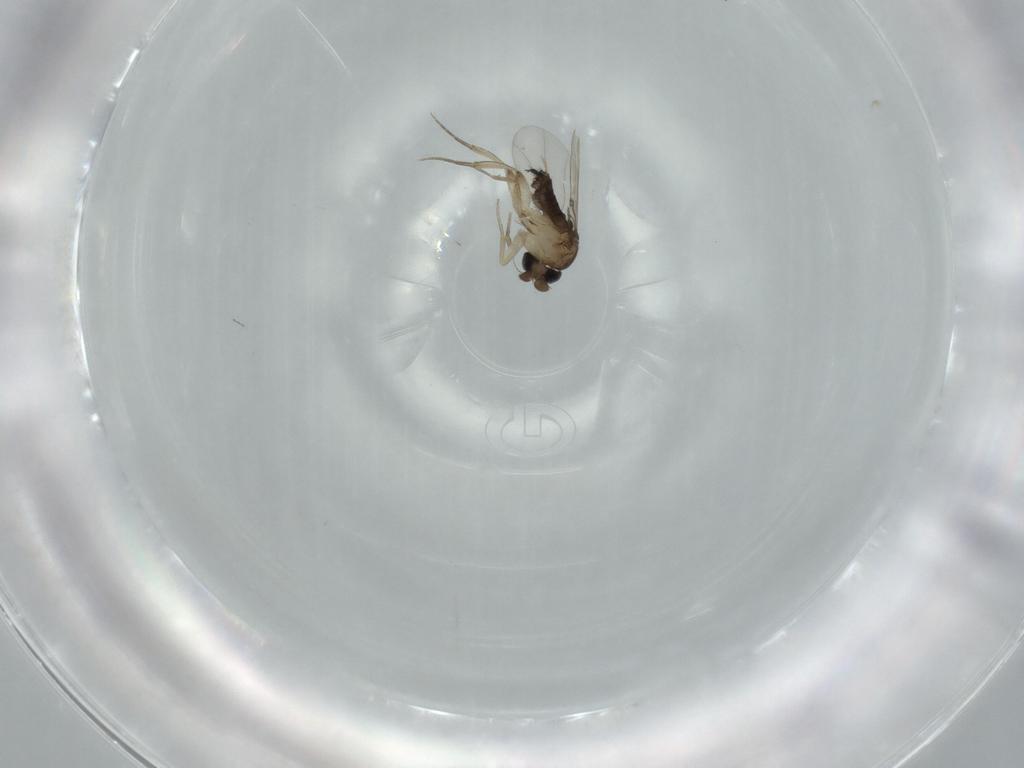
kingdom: Animalia
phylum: Arthropoda
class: Insecta
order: Diptera
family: Phoridae
